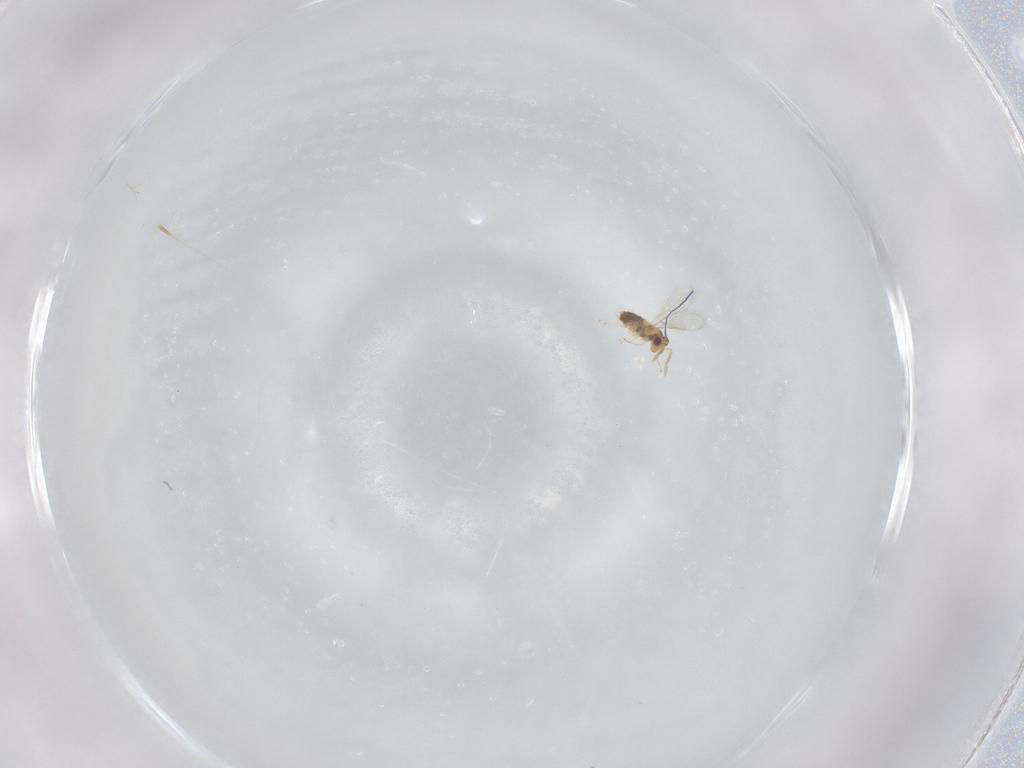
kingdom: Animalia
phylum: Arthropoda
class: Insecta
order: Hymenoptera
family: Aphelinidae
